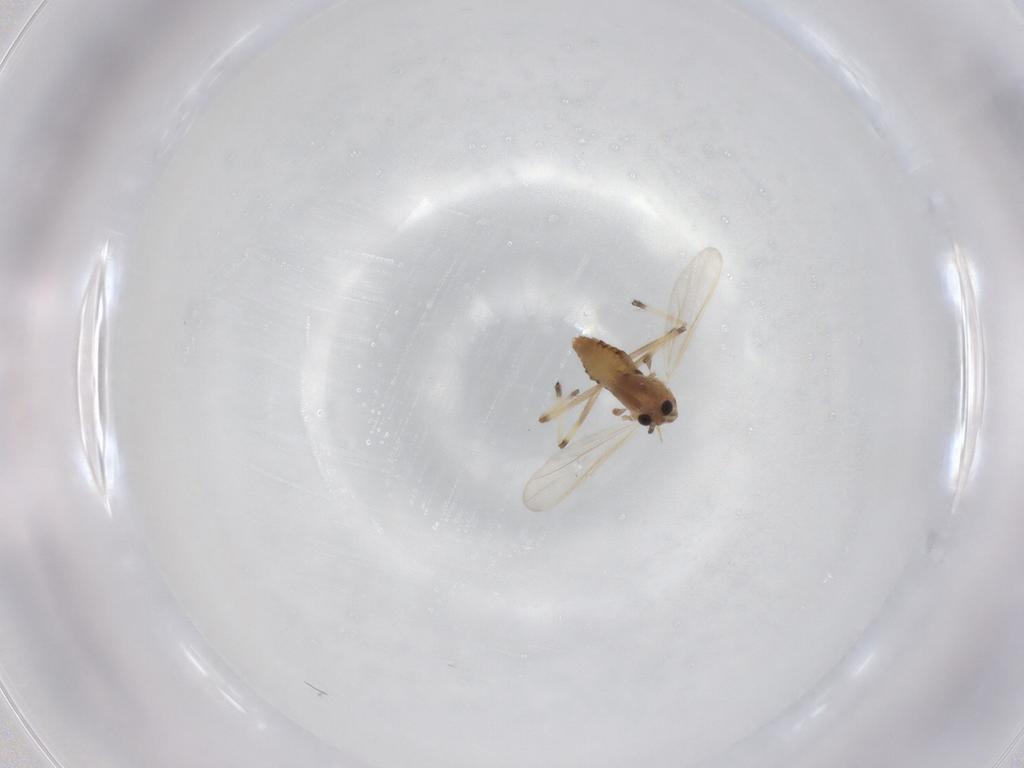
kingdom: Animalia
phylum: Arthropoda
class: Insecta
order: Diptera
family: Chironomidae
